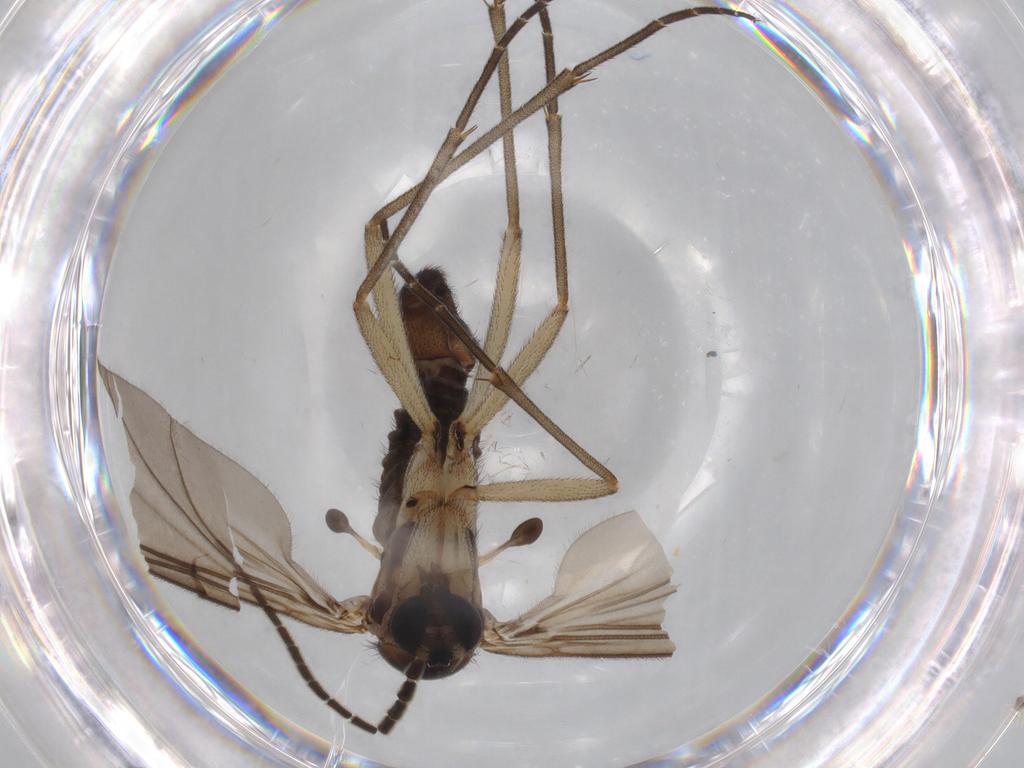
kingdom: Animalia
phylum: Arthropoda
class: Insecta
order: Diptera
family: Sciaridae
